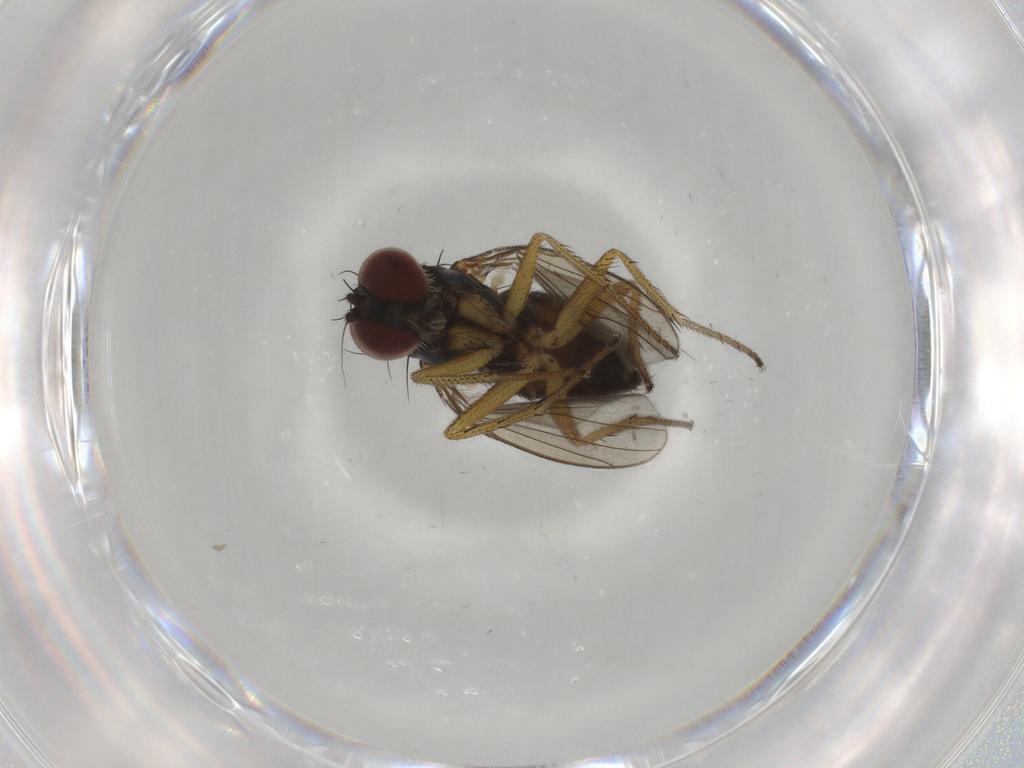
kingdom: Animalia
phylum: Arthropoda
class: Insecta
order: Diptera
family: Dolichopodidae
